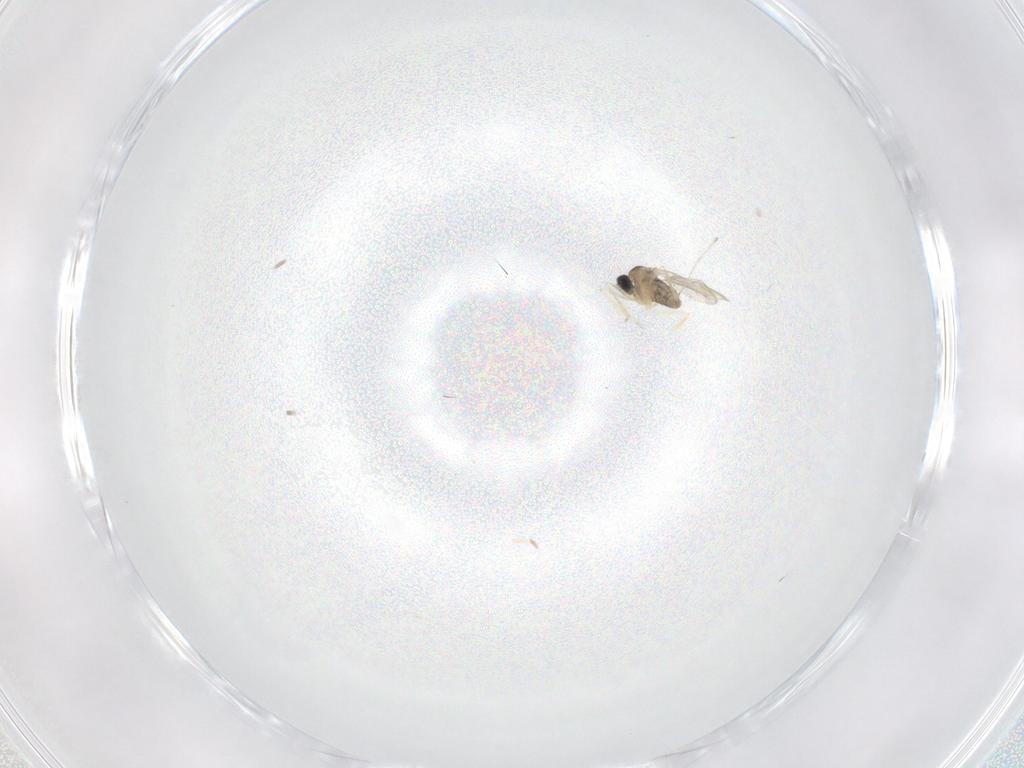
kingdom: Animalia
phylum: Arthropoda
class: Insecta
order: Diptera
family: Cecidomyiidae
